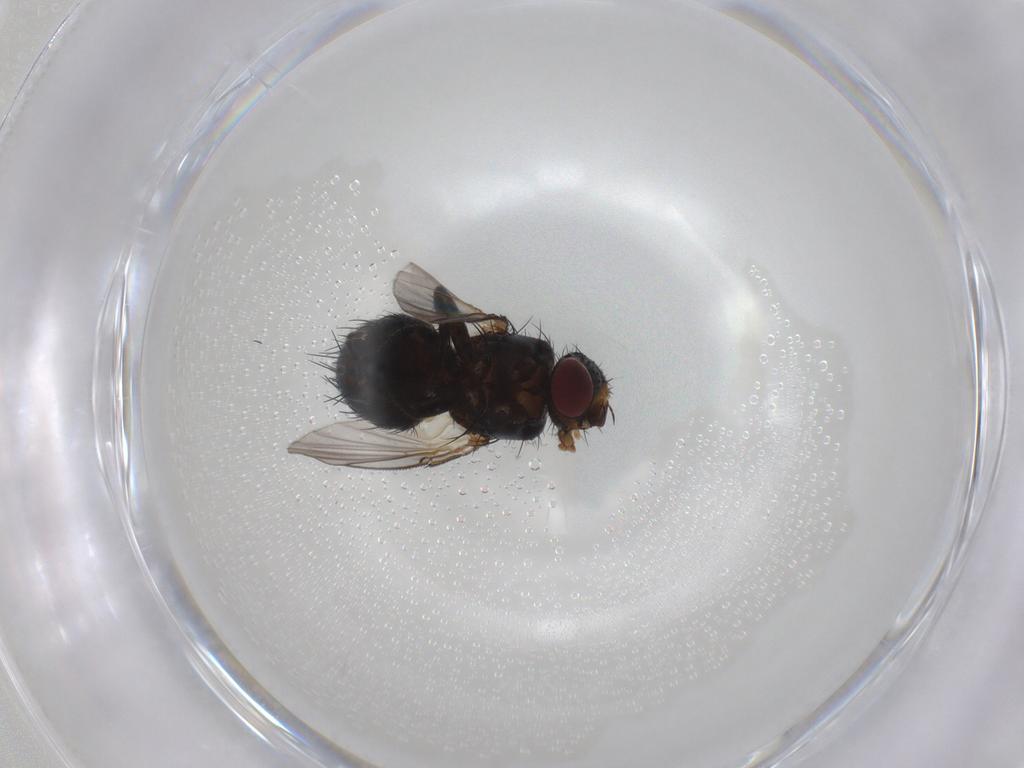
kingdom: Animalia
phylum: Arthropoda
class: Insecta
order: Diptera
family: Tachinidae
